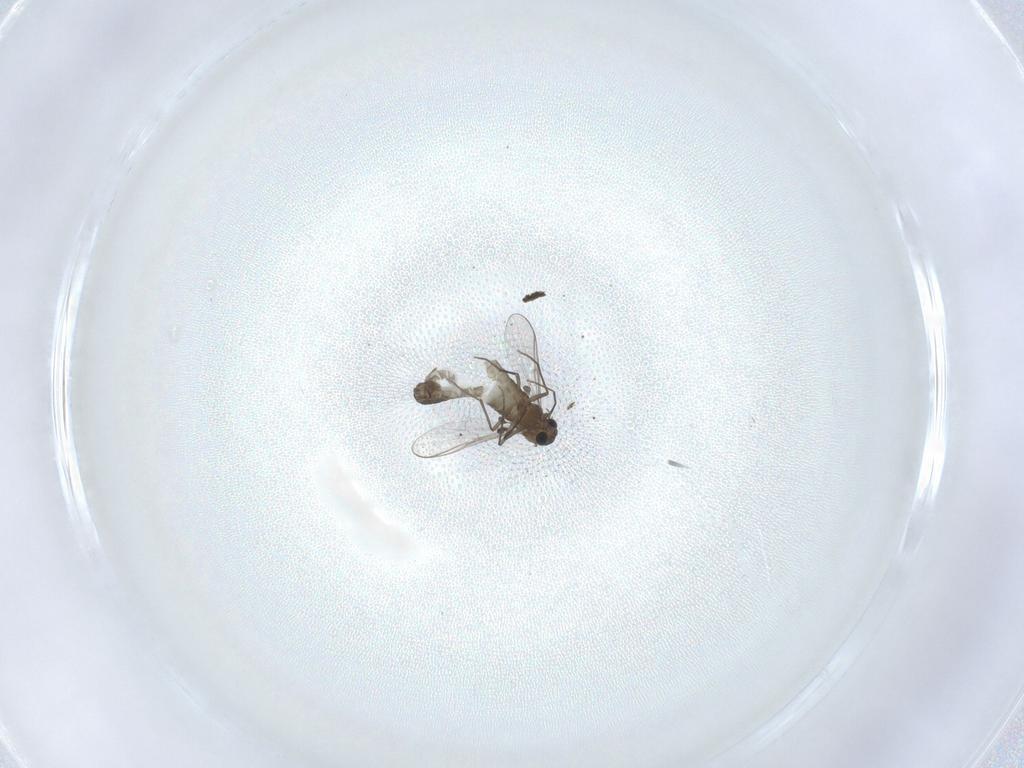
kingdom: Animalia
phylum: Arthropoda
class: Insecta
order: Diptera
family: Chironomidae
